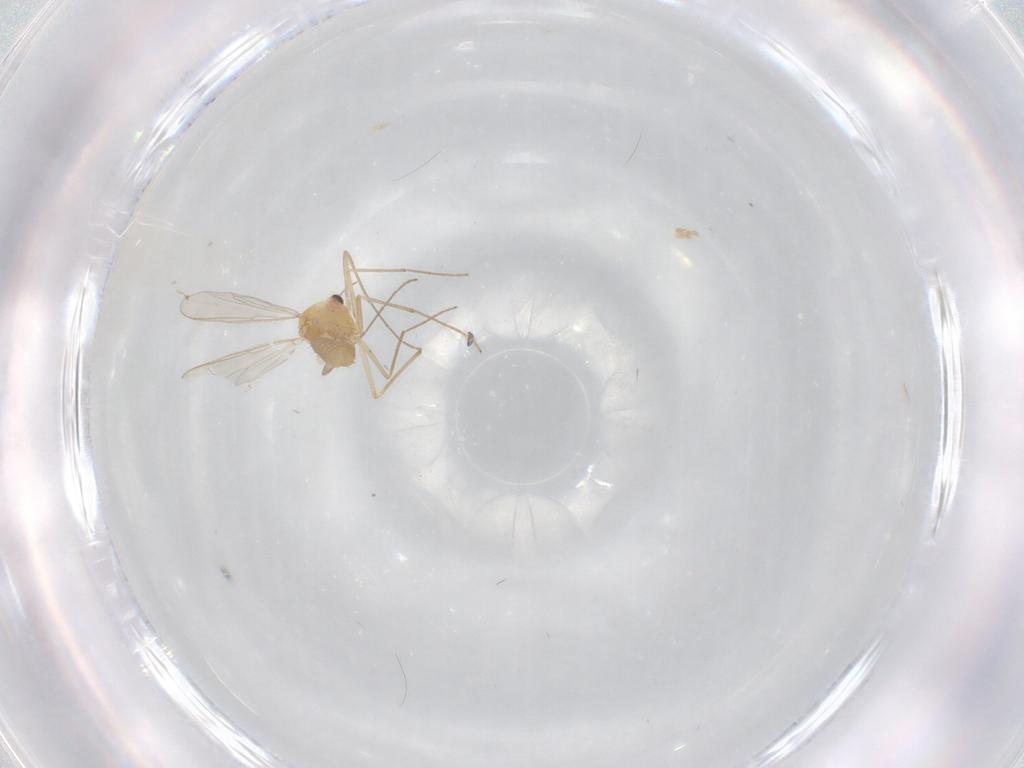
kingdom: Animalia
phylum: Arthropoda
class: Insecta
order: Diptera
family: Chironomidae
